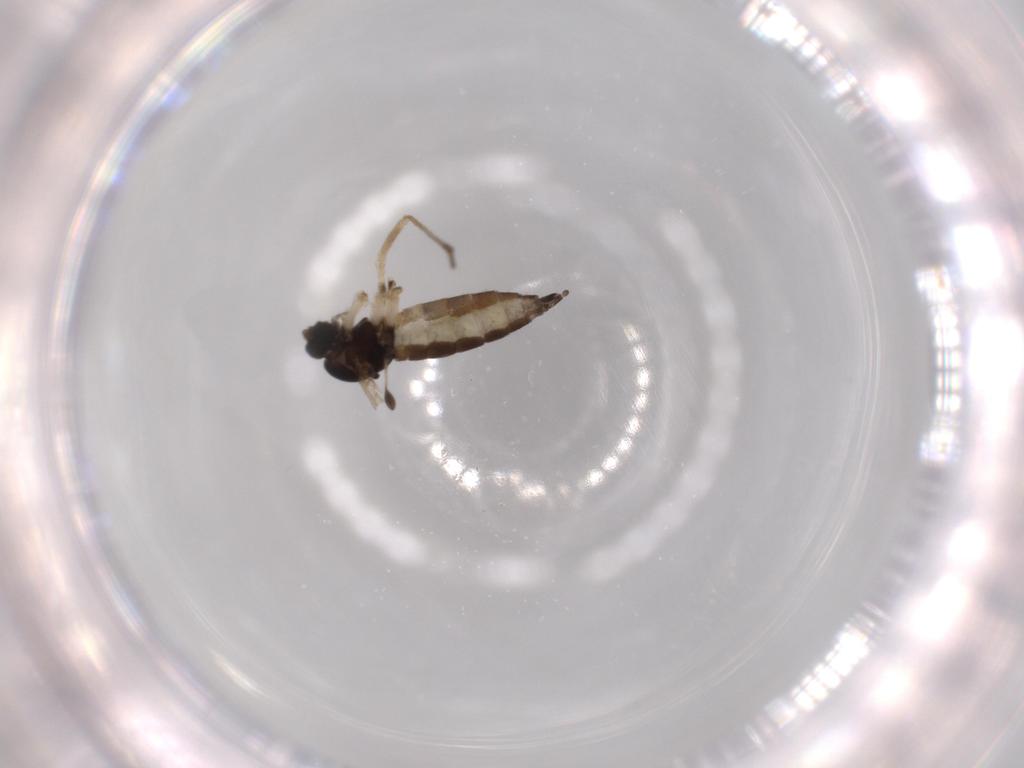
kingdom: Animalia
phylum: Arthropoda
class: Insecta
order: Diptera
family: Sciaridae
